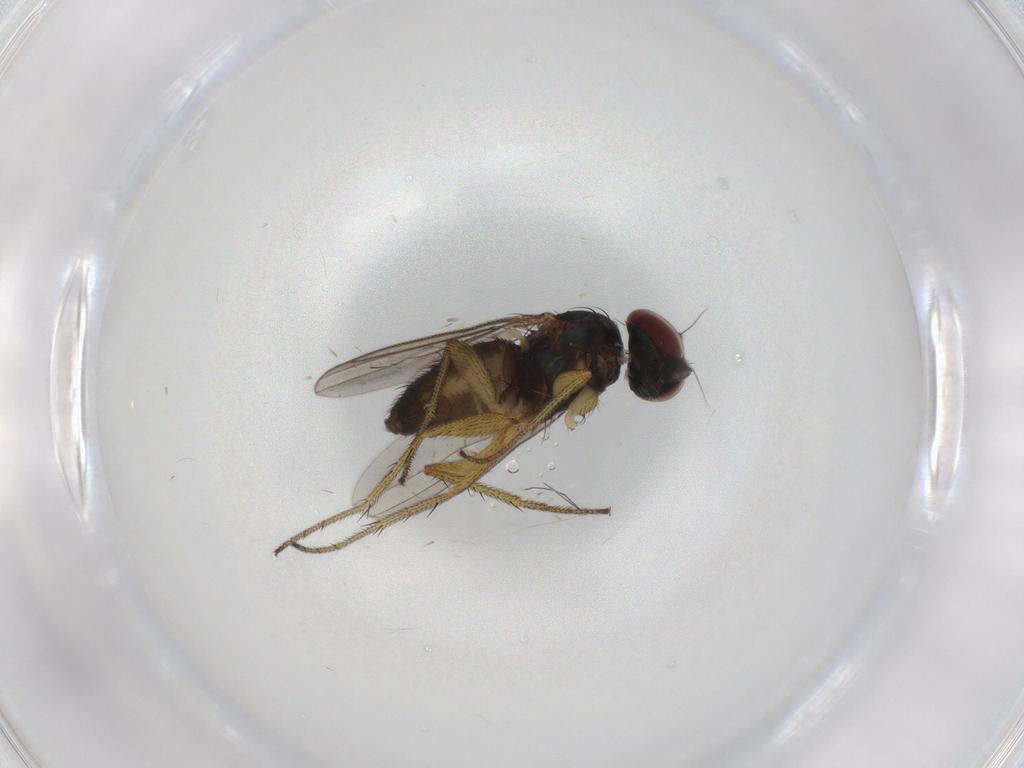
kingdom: Animalia
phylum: Arthropoda
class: Insecta
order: Diptera
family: Dolichopodidae
